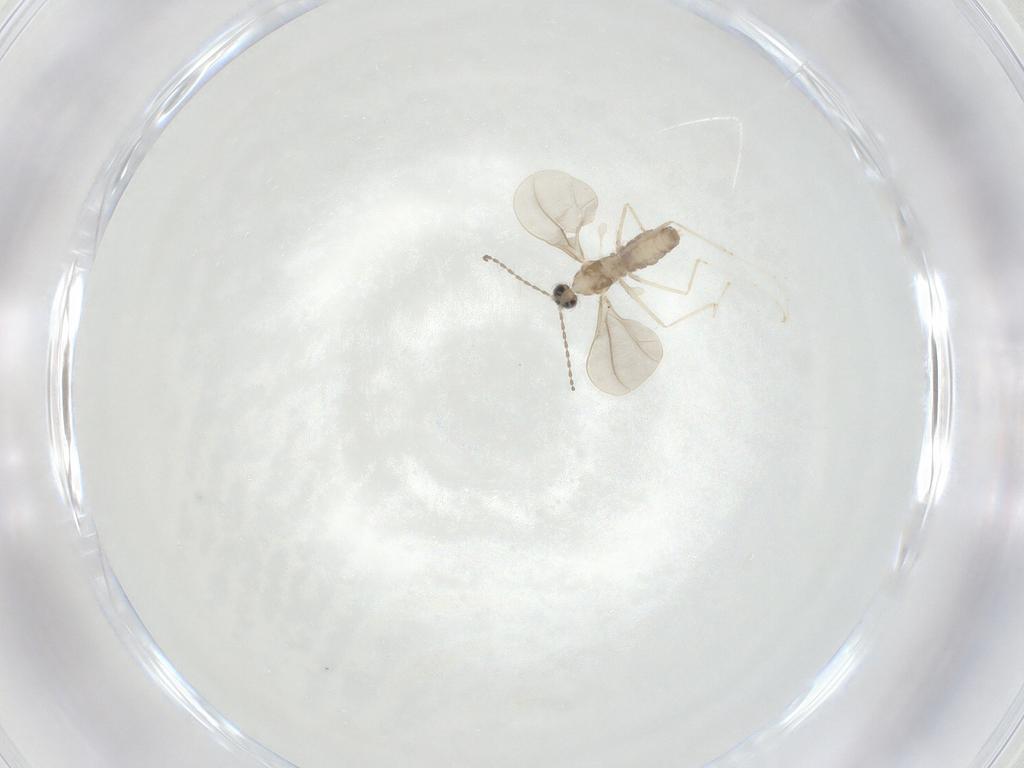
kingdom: Animalia
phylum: Arthropoda
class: Insecta
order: Diptera
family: Cecidomyiidae
